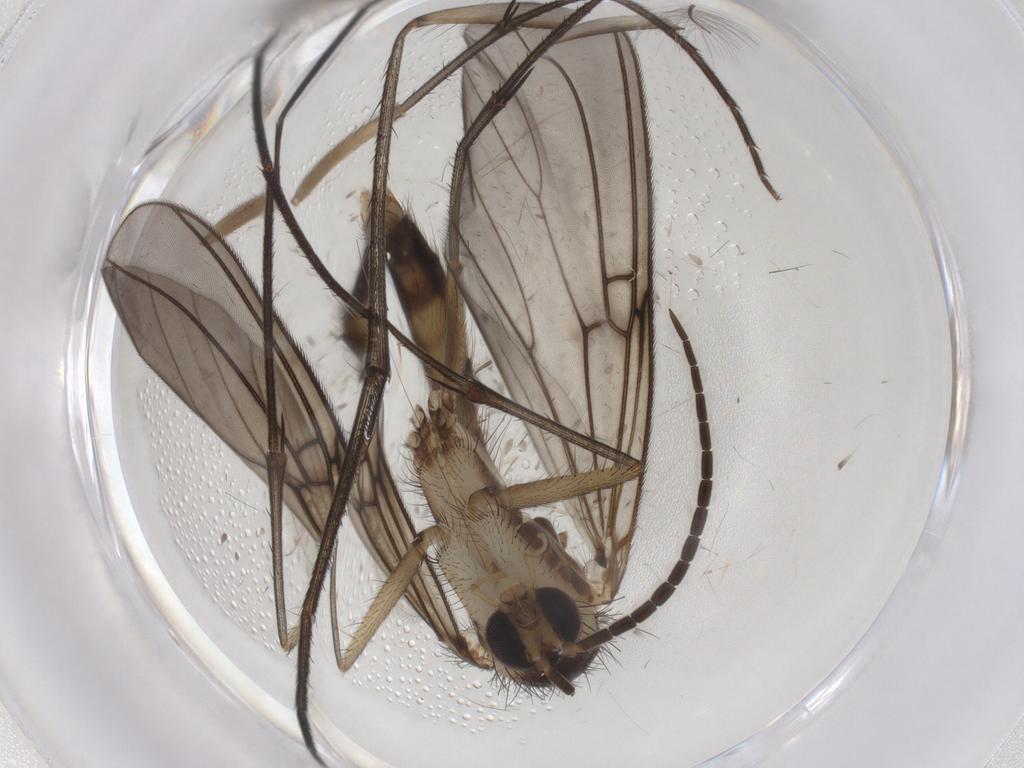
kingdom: Animalia
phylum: Arthropoda
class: Insecta
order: Diptera
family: Mycetophilidae
